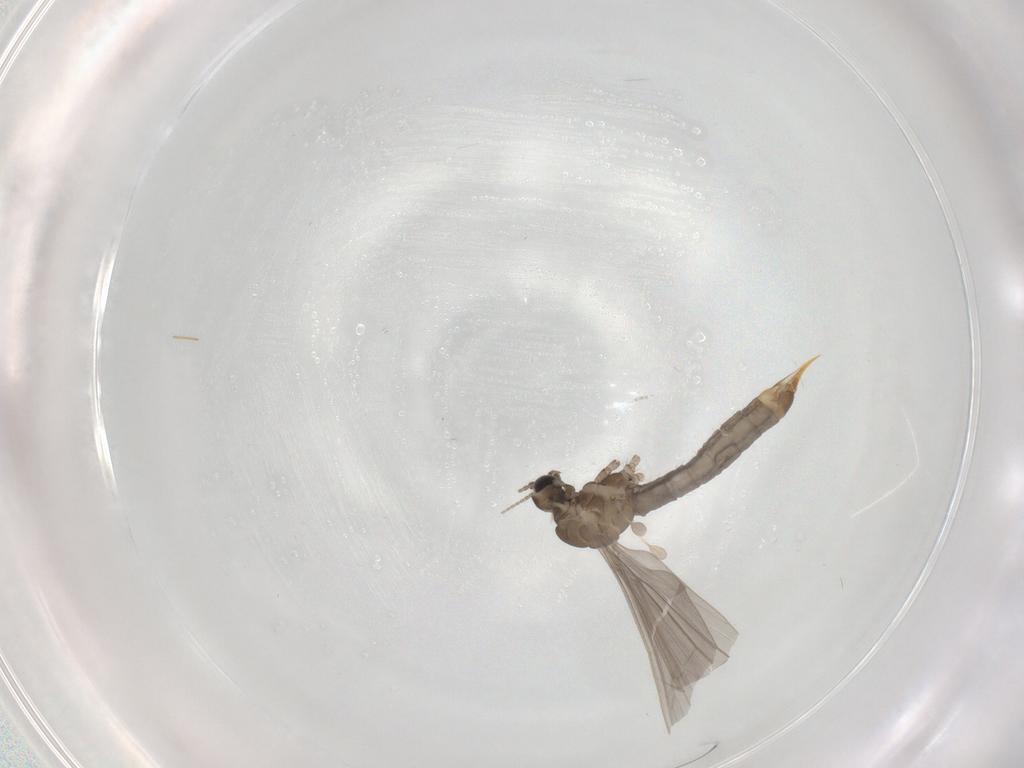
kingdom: Animalia
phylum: Arthropoda
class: Insecta
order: Diptera
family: Limoniidae
